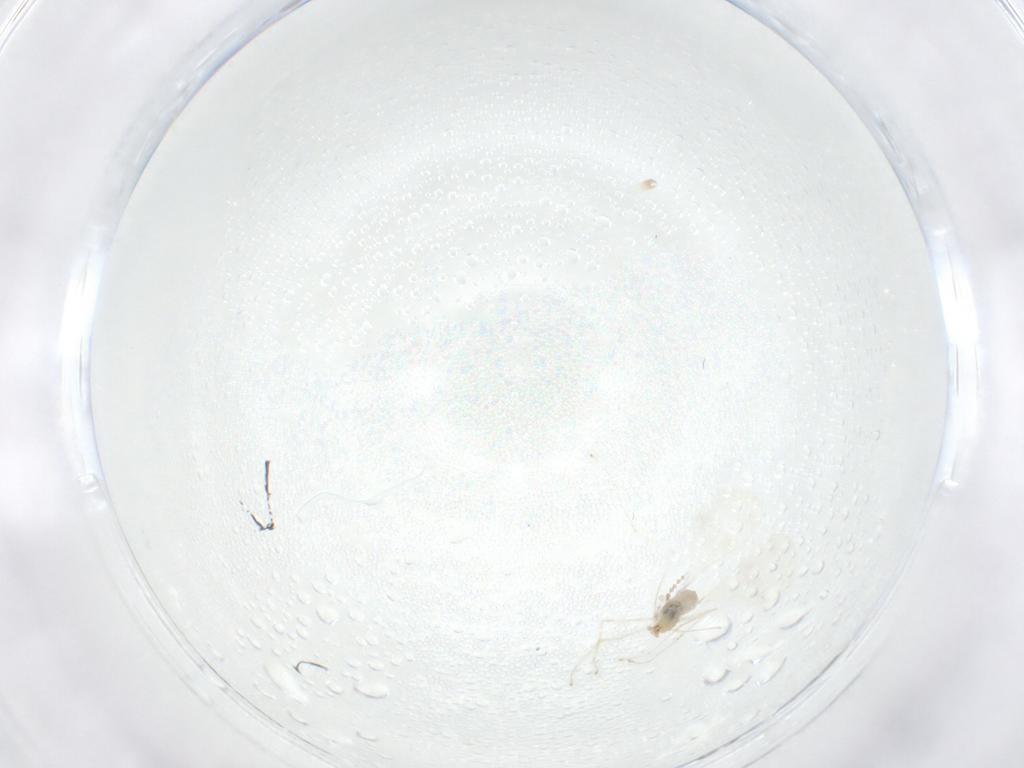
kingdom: Animalia
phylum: Arthropoda
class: Insecta
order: Diptera
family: Cecidomyiidae
